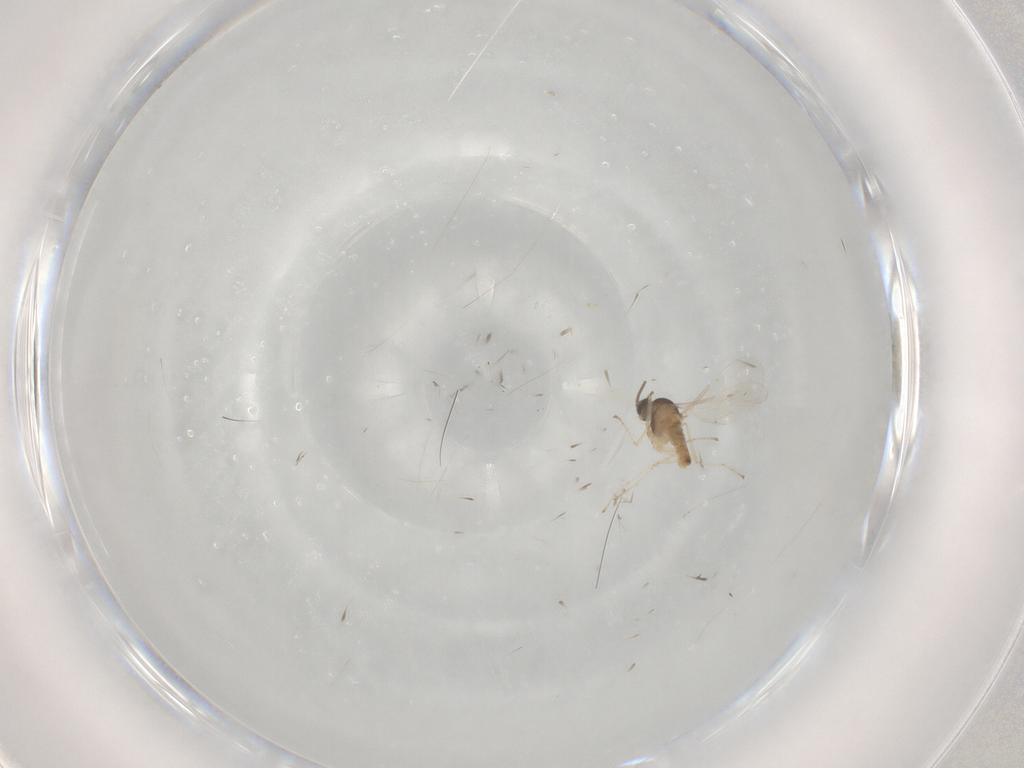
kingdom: Animalia
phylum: Arthropoda
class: Insecta
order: Diptera
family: Cecidomyiidae
